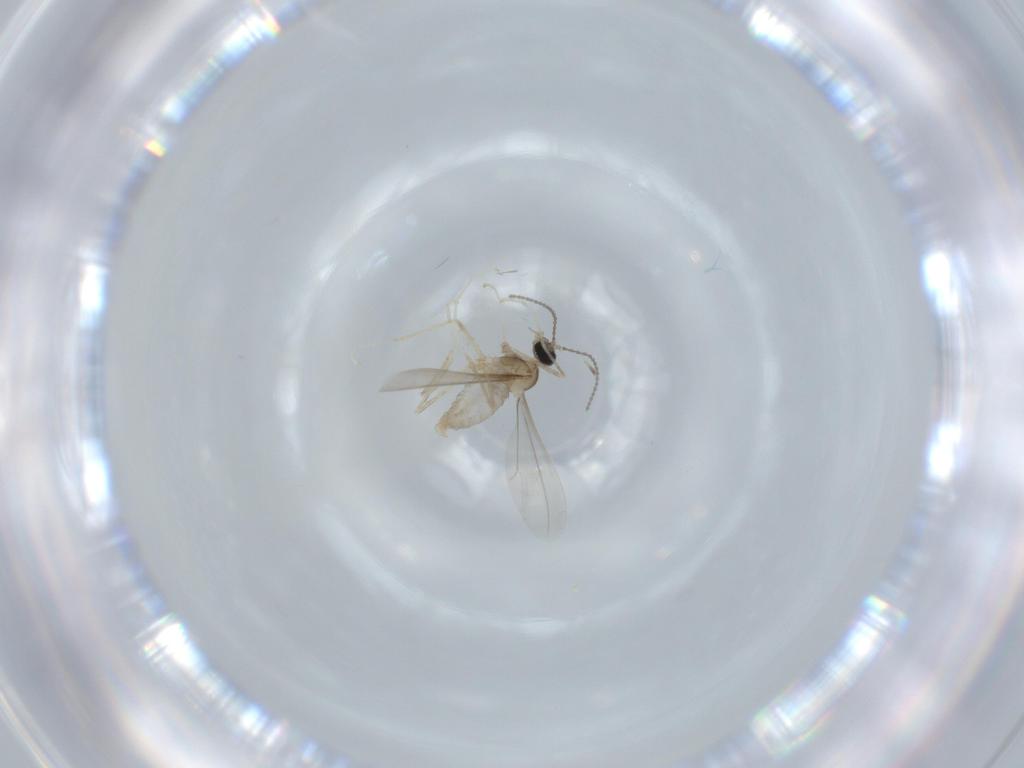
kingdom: Animalia
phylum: Arthropoda
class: Insecta
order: Diptera
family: Cecidomyiidae
